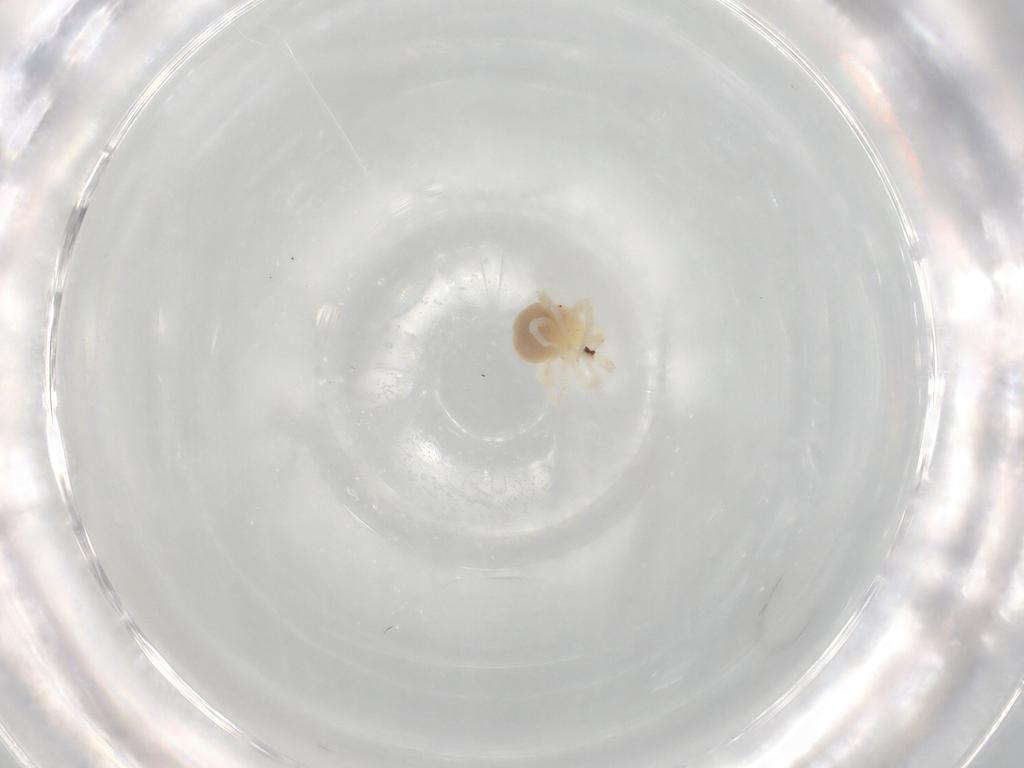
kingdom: Animalia
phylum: Arthropoda
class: Arachnida
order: Trombidiformes
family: Anystidae
